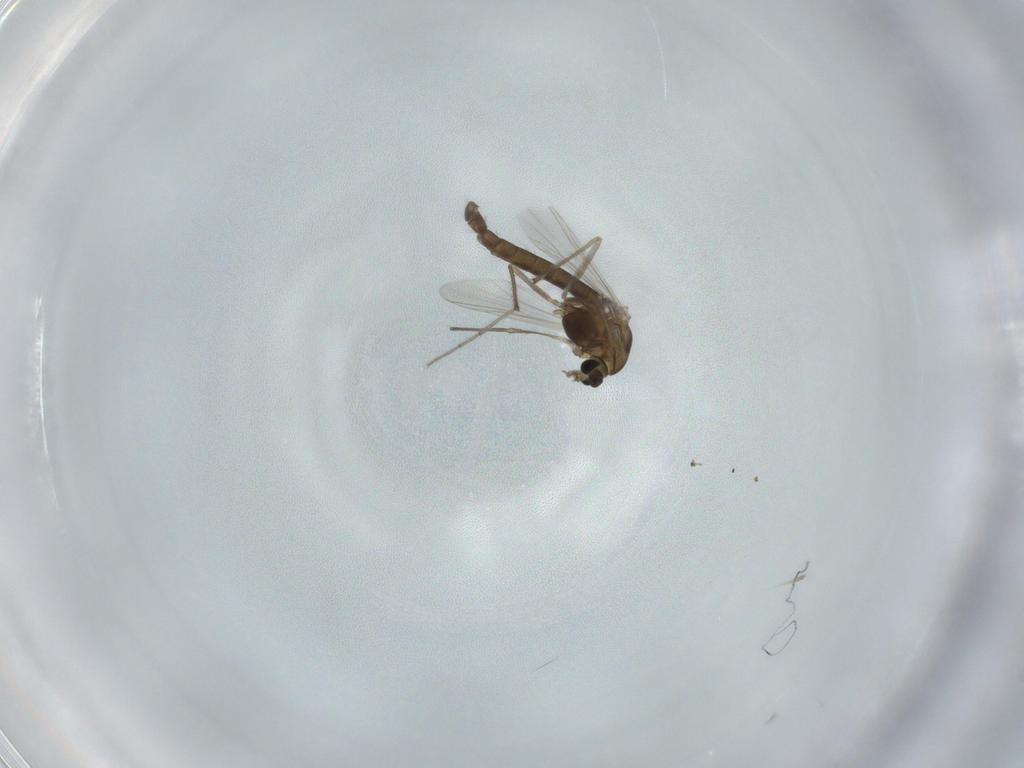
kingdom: Animalia
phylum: Arthropoda
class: Insecta
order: Diptera
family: Chironomidae
